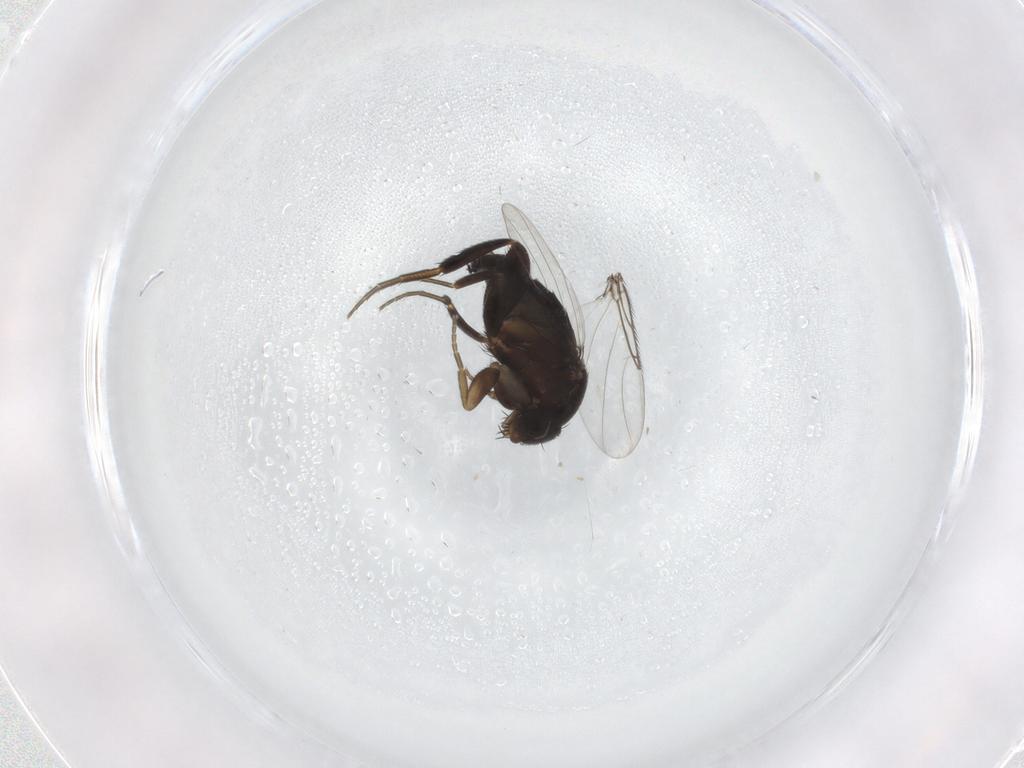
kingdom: Animalia
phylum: Arthropoda
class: Insecta
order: Diptera
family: Phoridae
